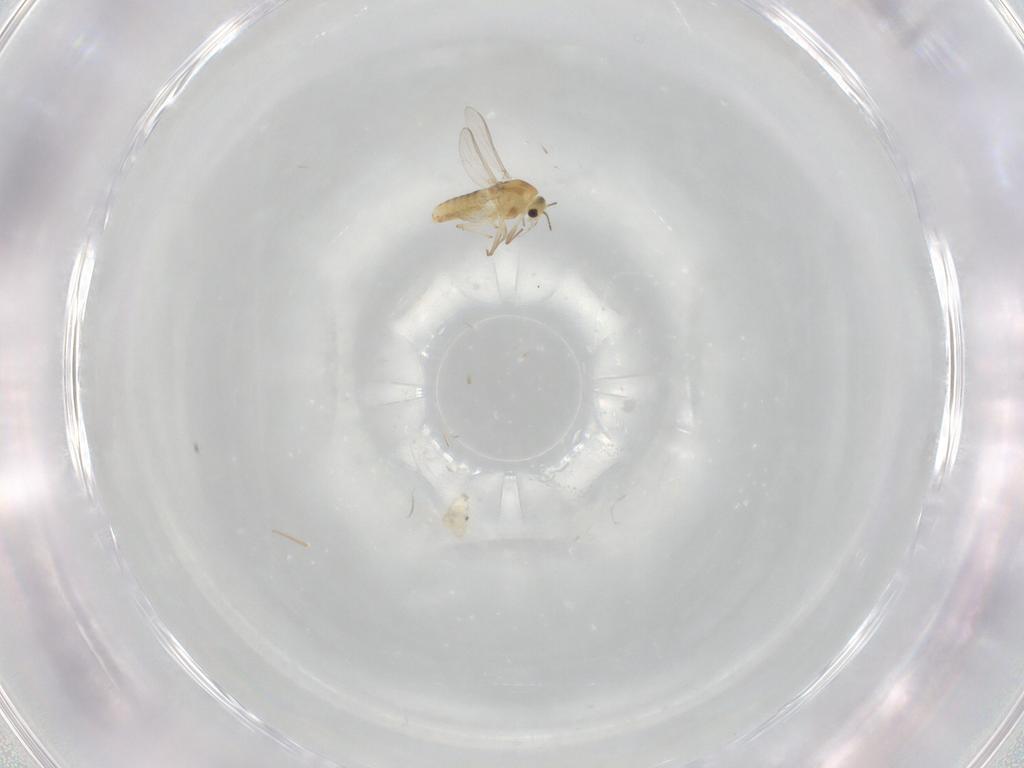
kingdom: Animalia
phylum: Arthropoda
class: Insecta
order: Diptera
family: Chironomidae
